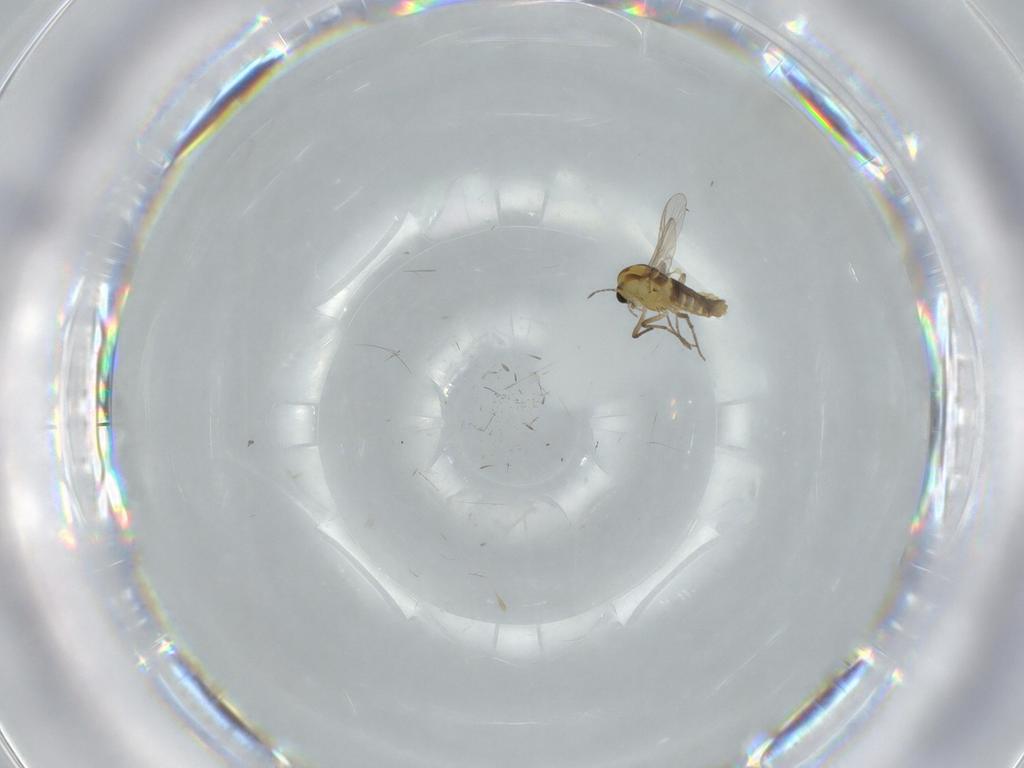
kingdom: Animalia
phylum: Arthropoda
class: Insecta
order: Diptera
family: Chironomidae
